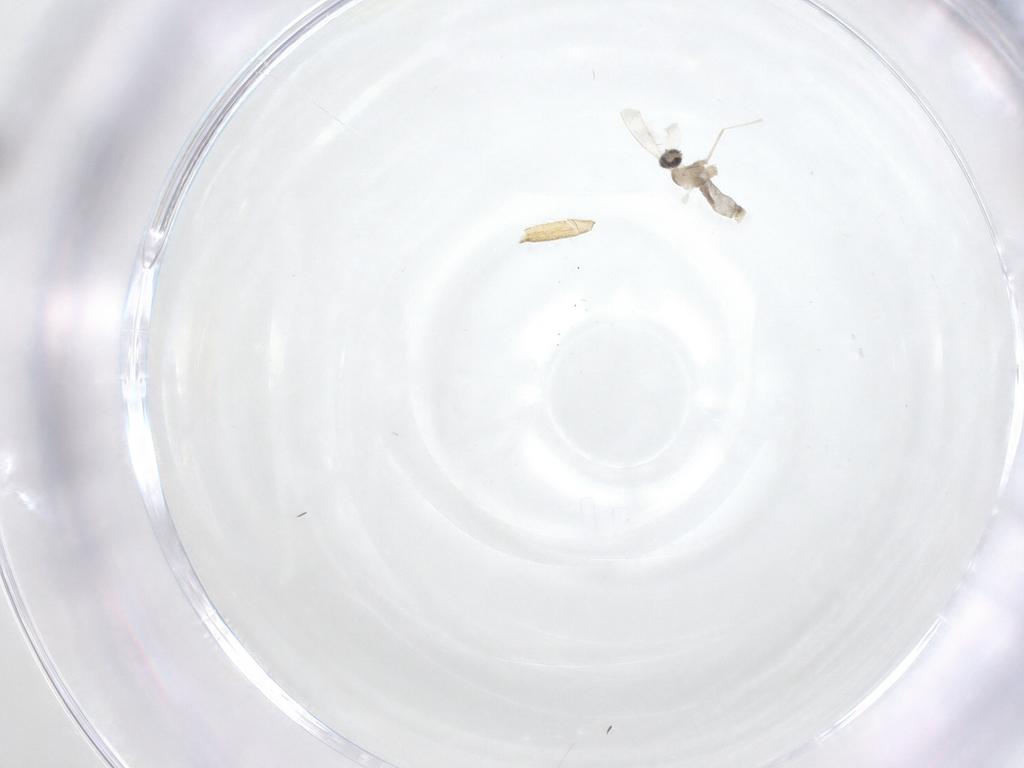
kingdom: Animalia
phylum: Arthropoda
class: Insecta
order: Diptera
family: Cecidomyiidae
